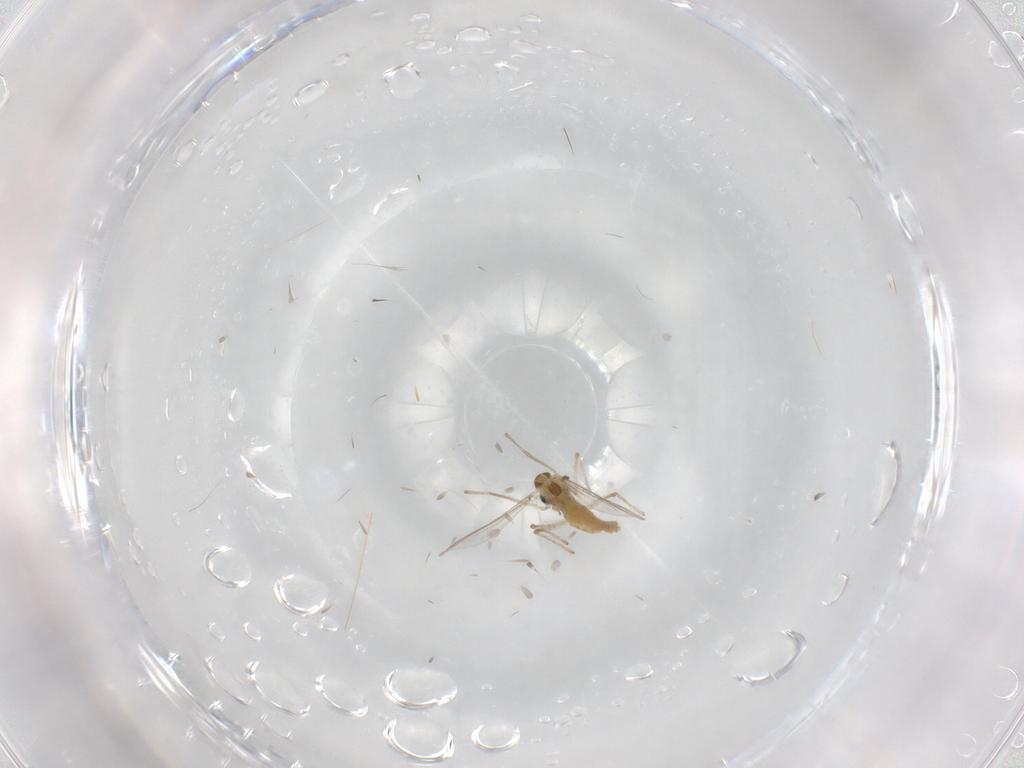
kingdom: Animalia
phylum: Arthropoda
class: Insecta
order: Diptera
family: Chironomidae
